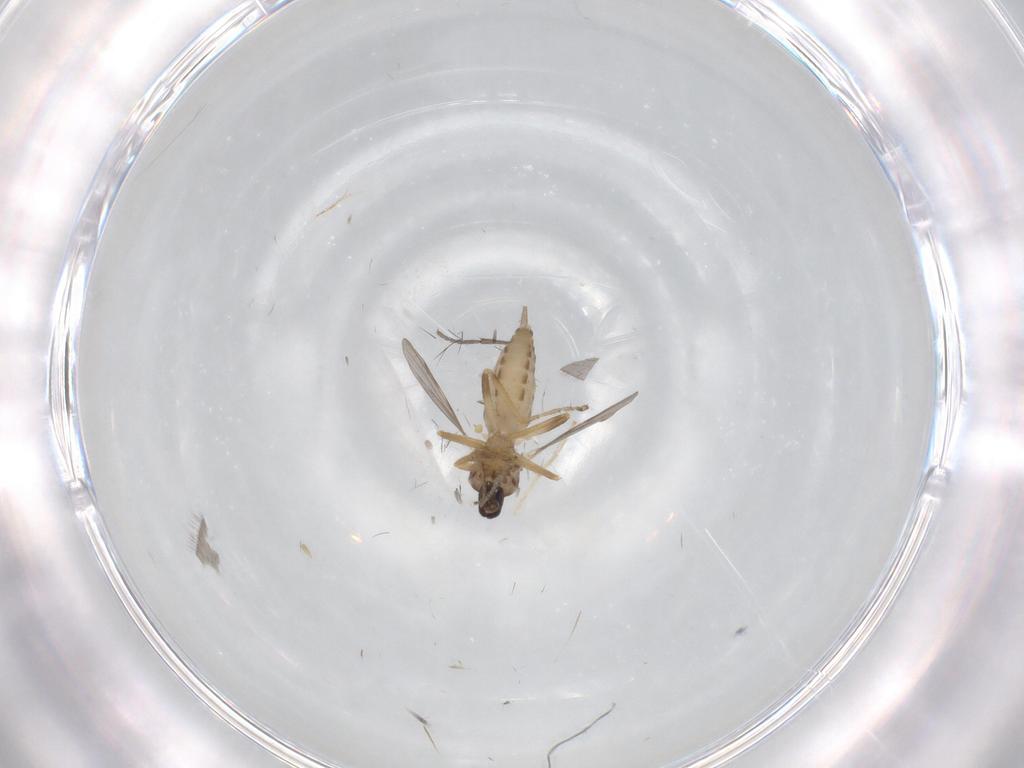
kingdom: Animalia
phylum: Arthropoda
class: Insecta
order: Diptera
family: Ceratopogonidae
